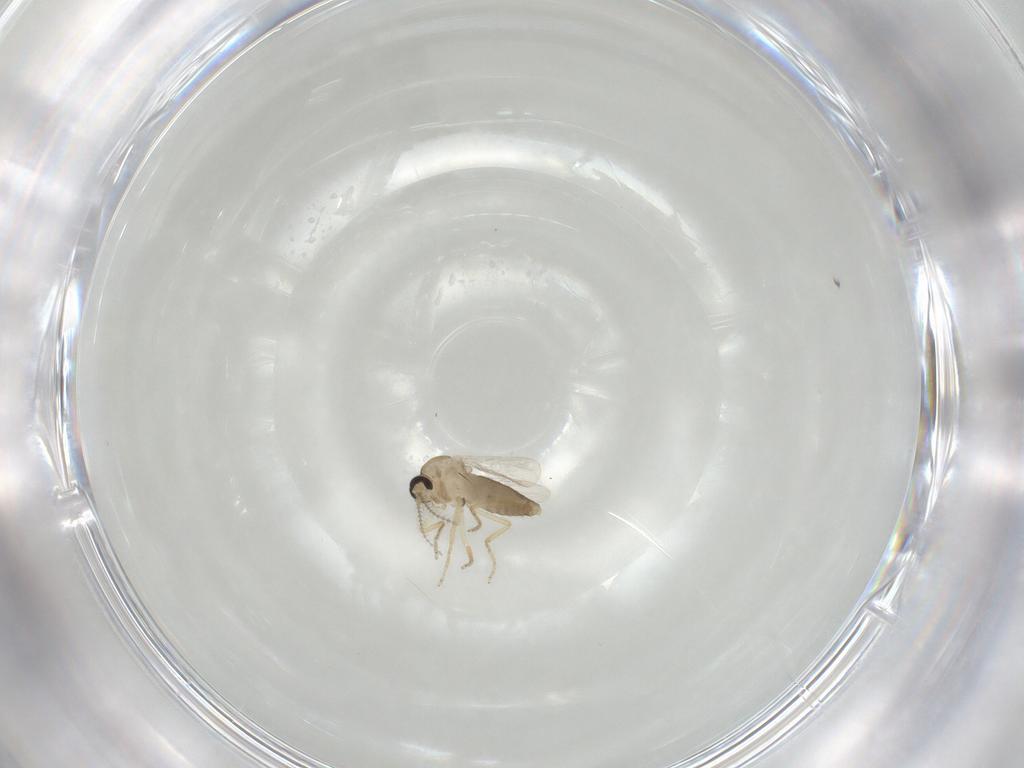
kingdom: Animalia
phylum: Arthropoda
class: Insecta
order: Diptera
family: Ceratopogonidae
